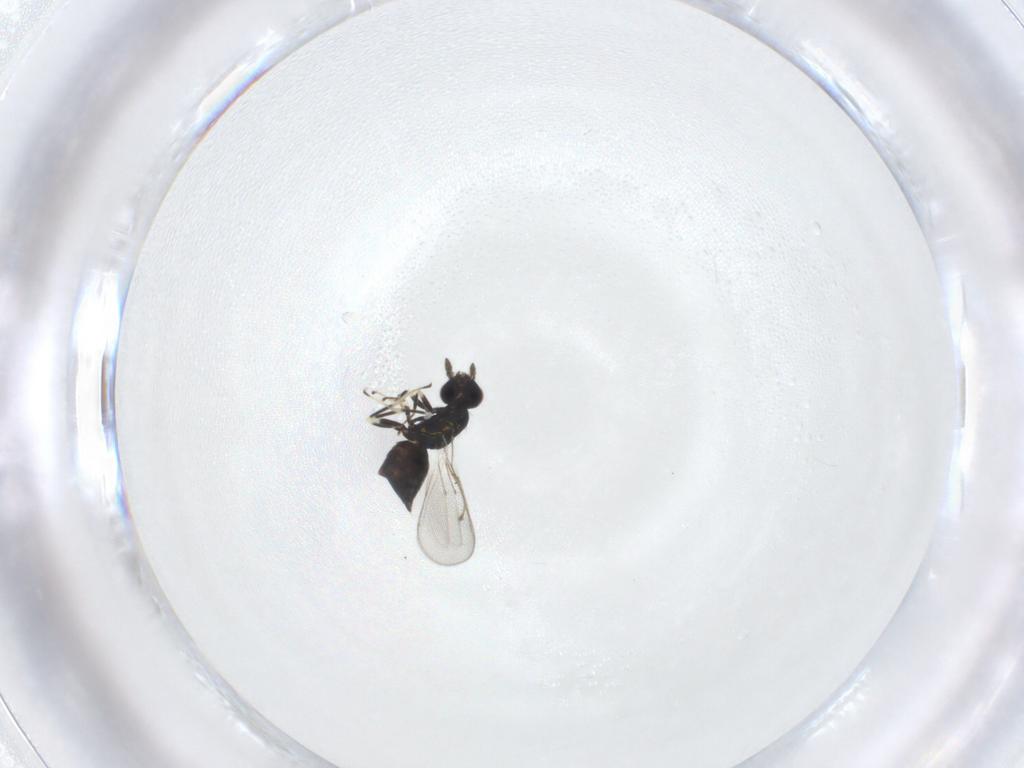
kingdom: Animalia
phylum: Arthropoda
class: Insecta
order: Hymenoptera
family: Eulophidae
